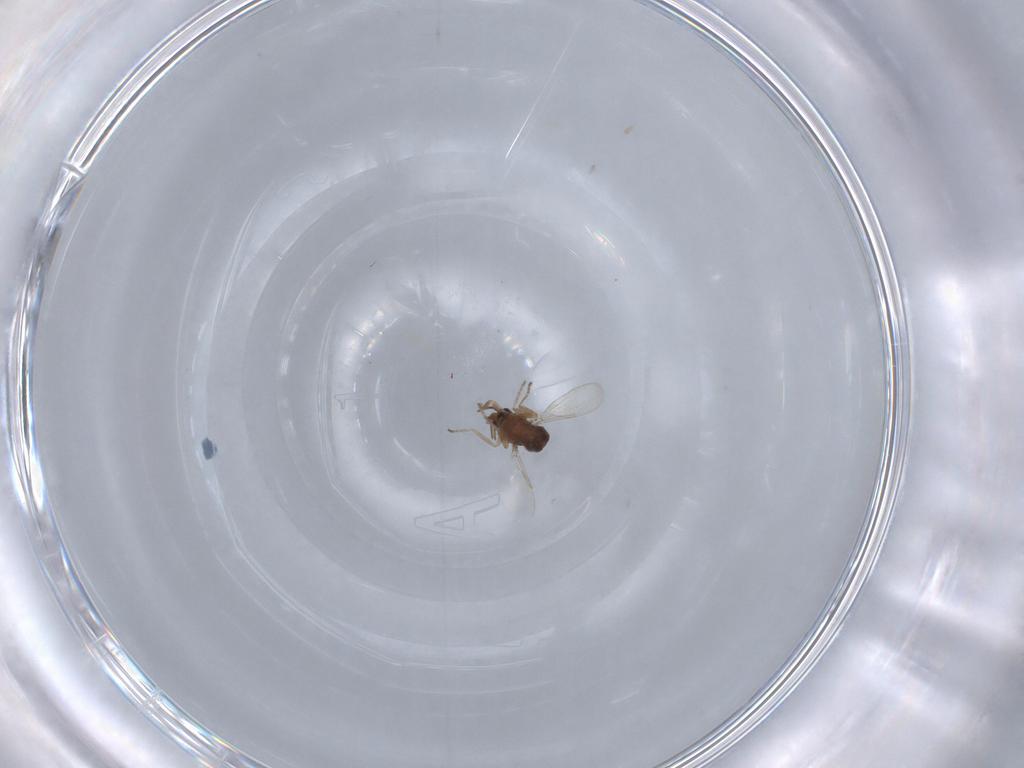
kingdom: Animalia
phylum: Arthropoda
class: Insecta
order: Diptera
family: Ceratopogonidae
